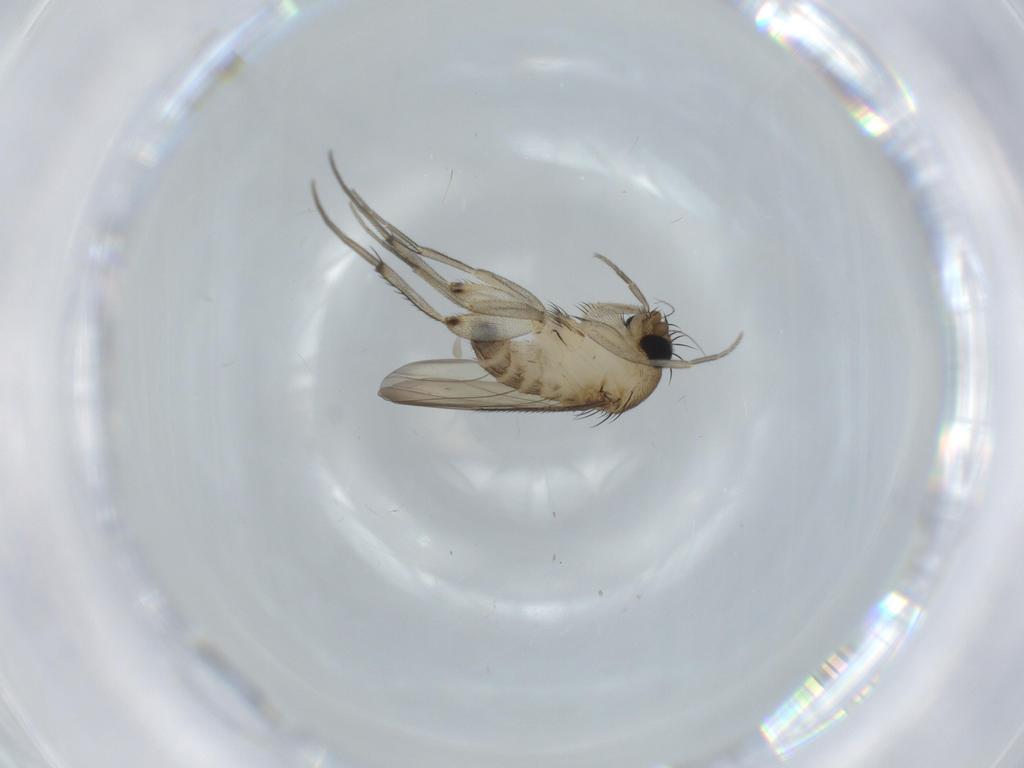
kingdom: Animalia
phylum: Arthropoda
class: Insecta
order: Diptera
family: Phoridae
